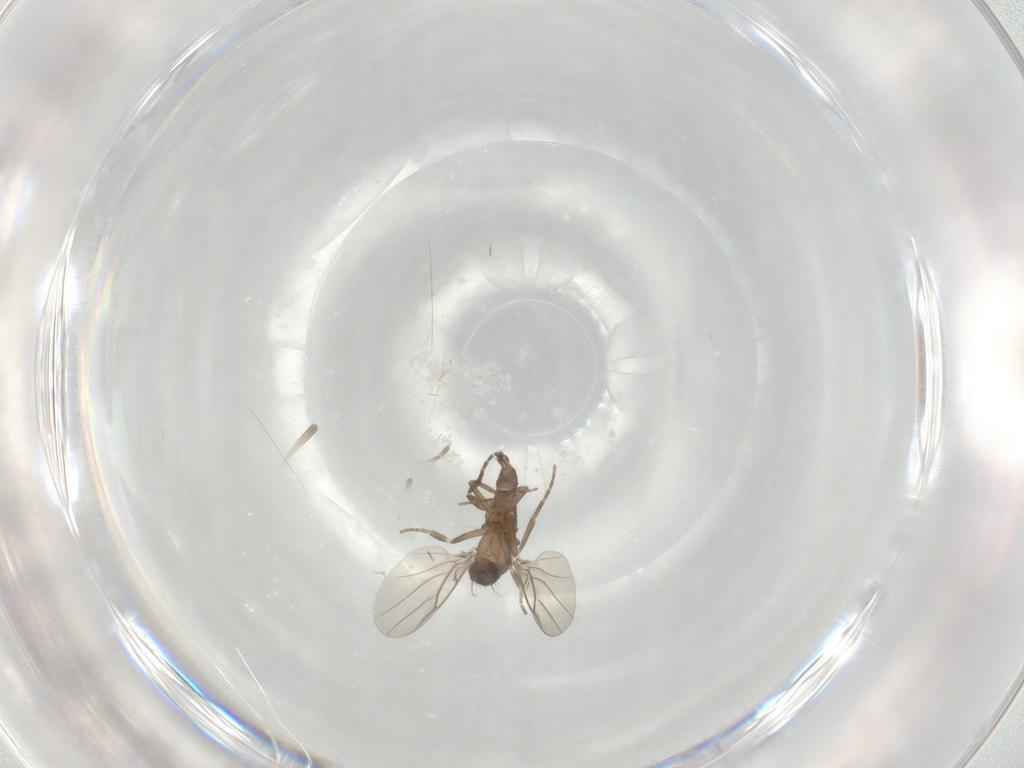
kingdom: Animalia
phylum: Arthropoda
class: Insecta
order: Diptera
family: Phoridae
